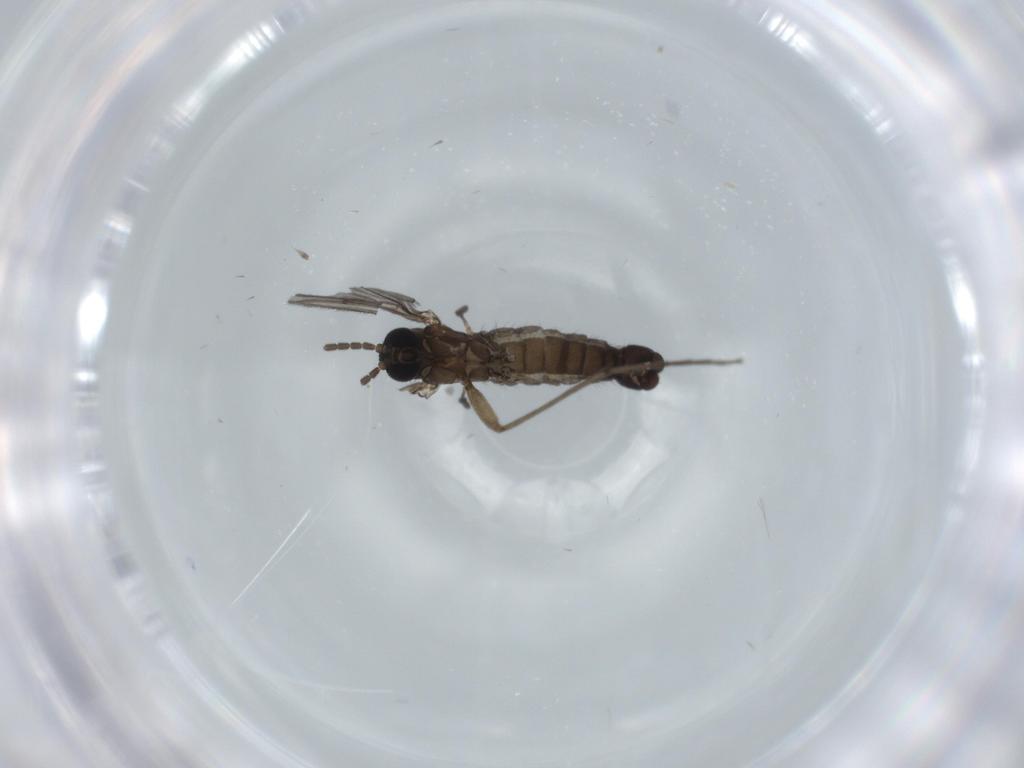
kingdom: Animalia
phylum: Arthropoda
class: Insecta
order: Diptera
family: Sciaridae
